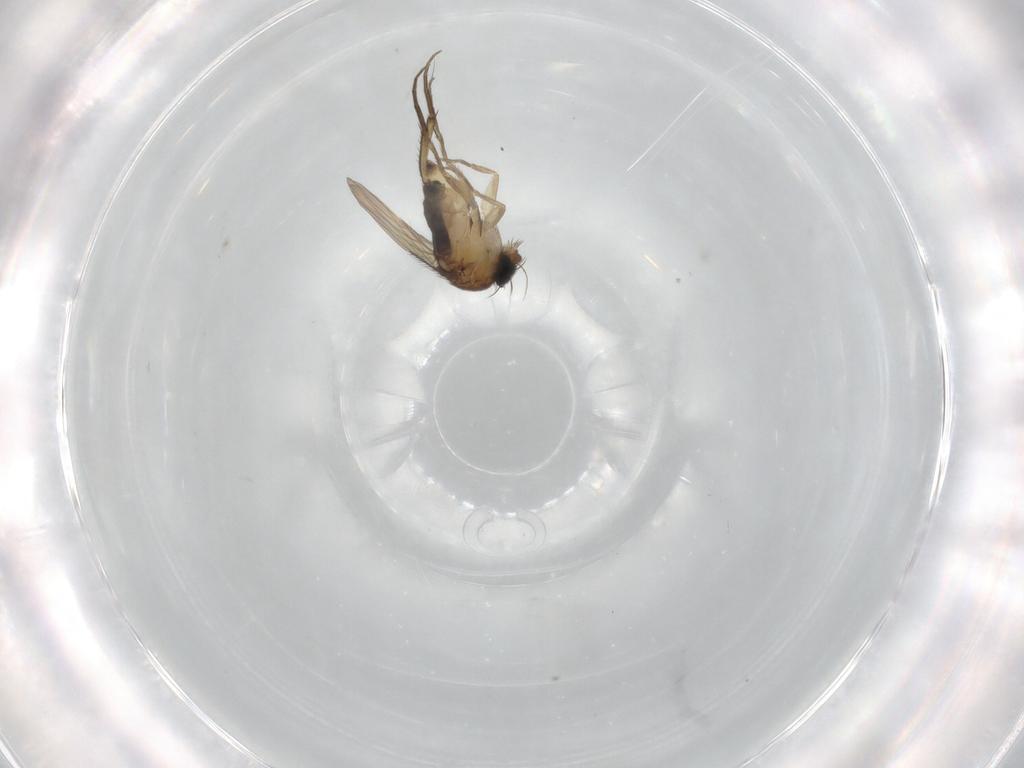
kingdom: Animalia
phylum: Arthropoda
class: Insecta
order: Diptera
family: Phoridae
